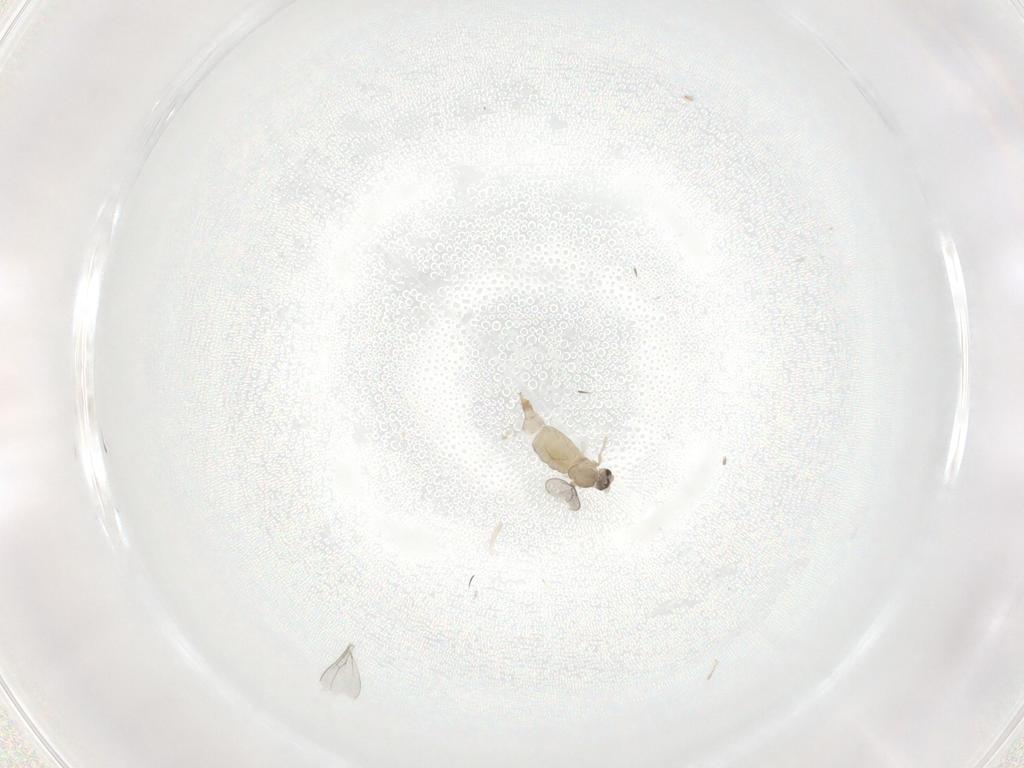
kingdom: Animalia
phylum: Arthropoda
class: Insecta
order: Diptera
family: Cecidomyiidae
